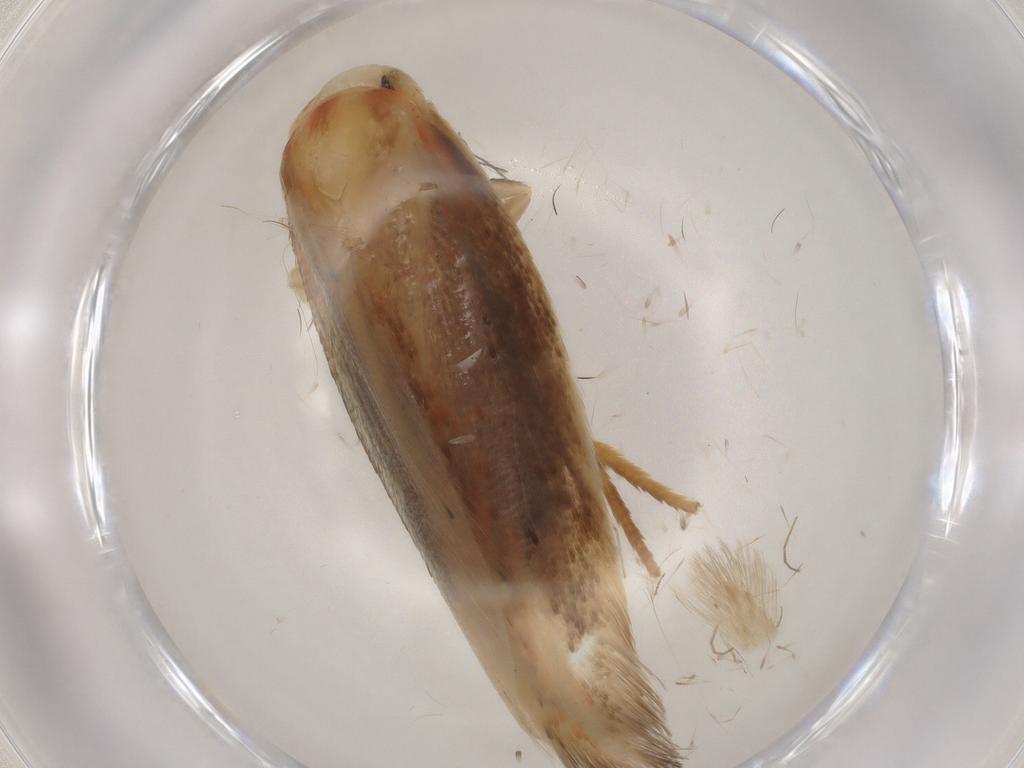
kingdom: Animalia
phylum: Arthropoda
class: Insecta
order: Lepidoptera
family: Geometridae
